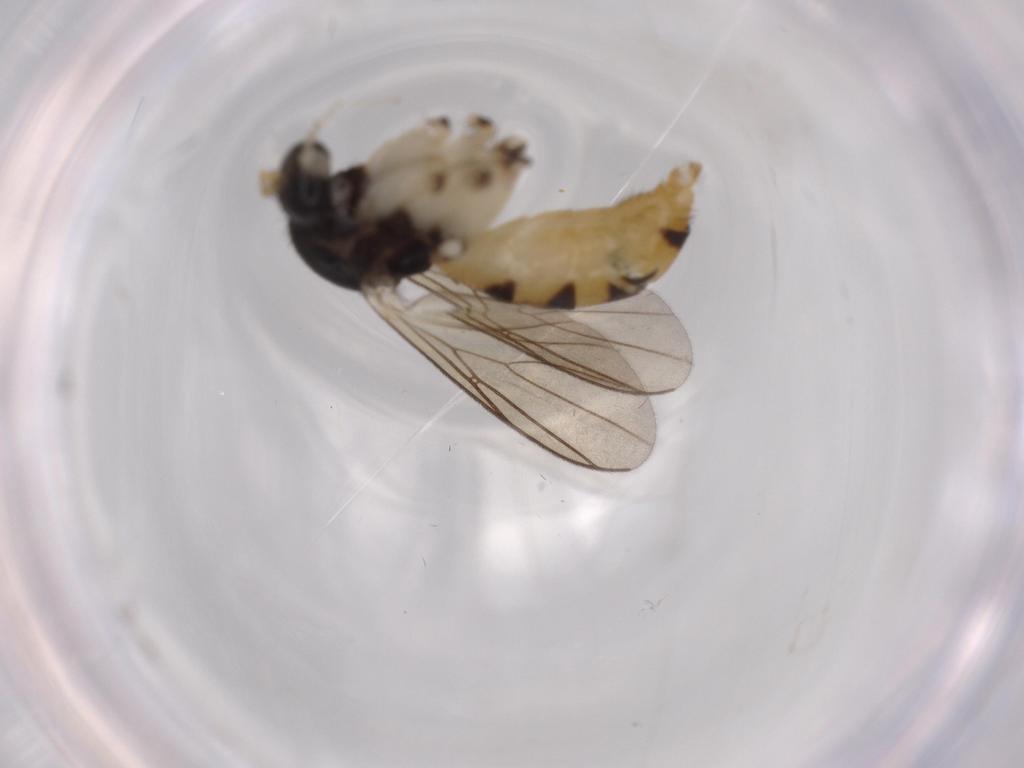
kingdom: Animalia
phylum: Arthropoda
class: Insecta
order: Diptera
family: Mycetophilidae
